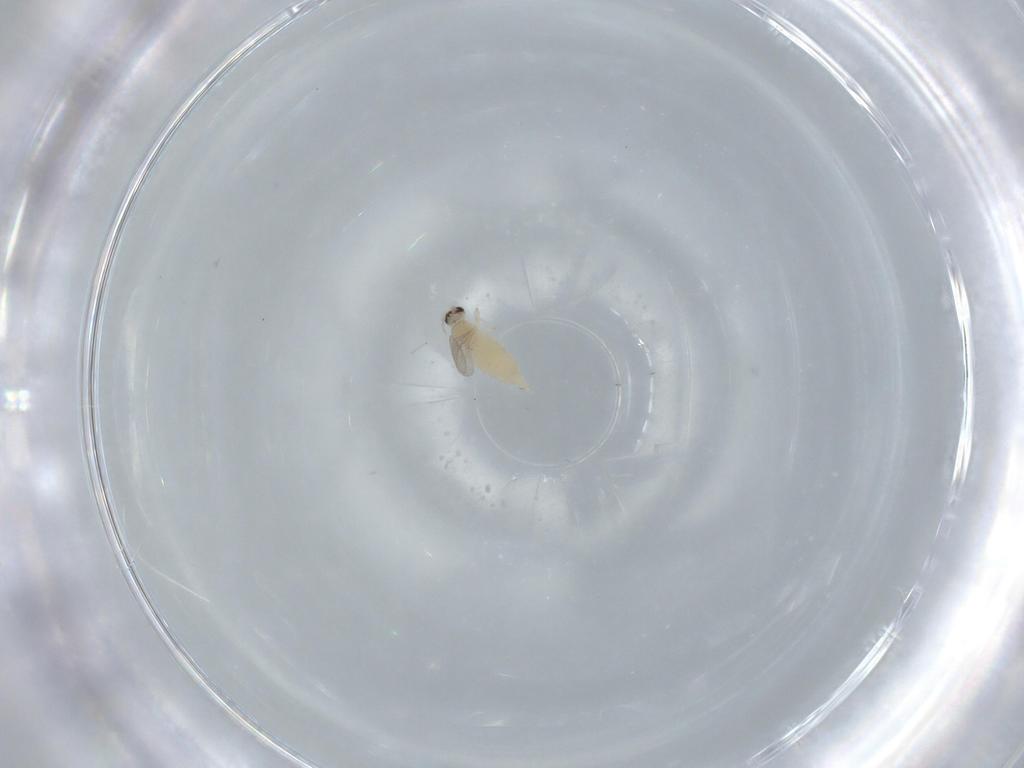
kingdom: Animalia
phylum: Arthropoda
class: Insecta
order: Diptera
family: Cecidomyiidae
